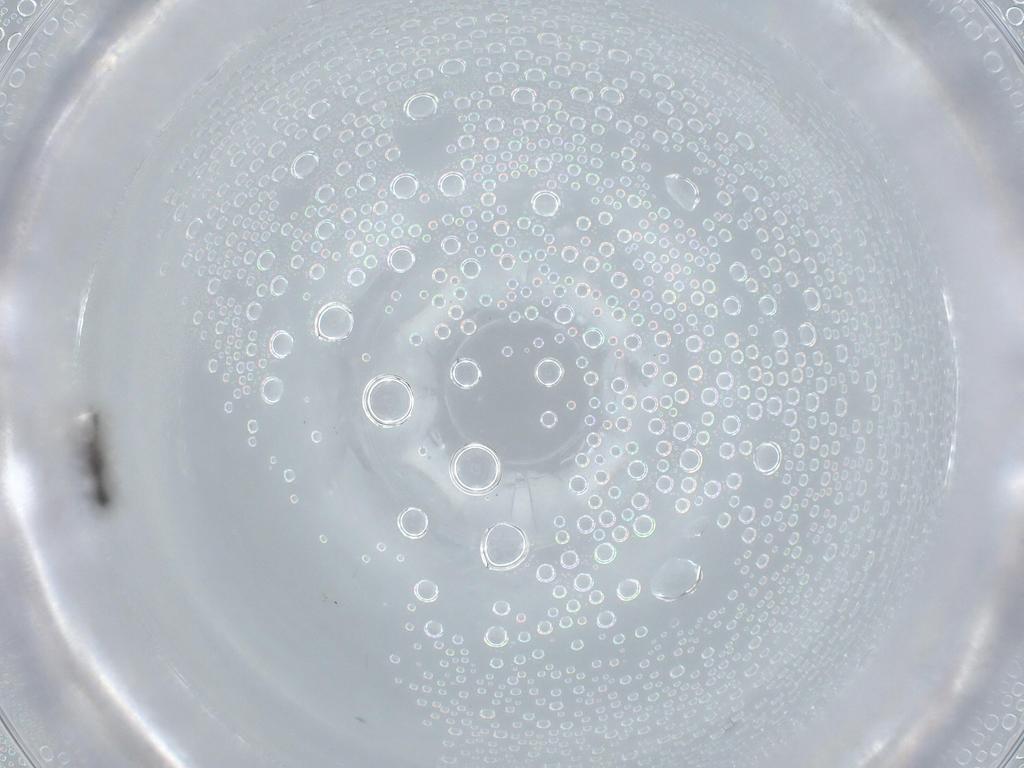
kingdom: Animalia
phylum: Arthropoda
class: Insecta
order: Diptera
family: Cecidomyiidae
